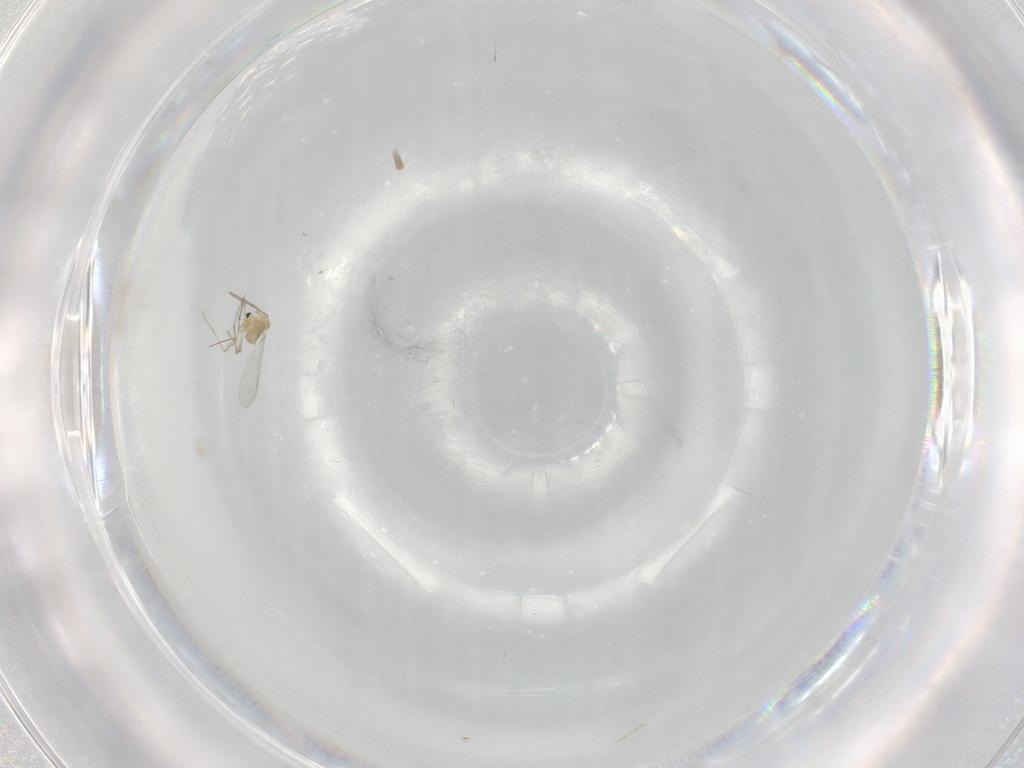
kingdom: Animalia
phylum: Arthropoda
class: Insecta
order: Diptera
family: Chironomidae
